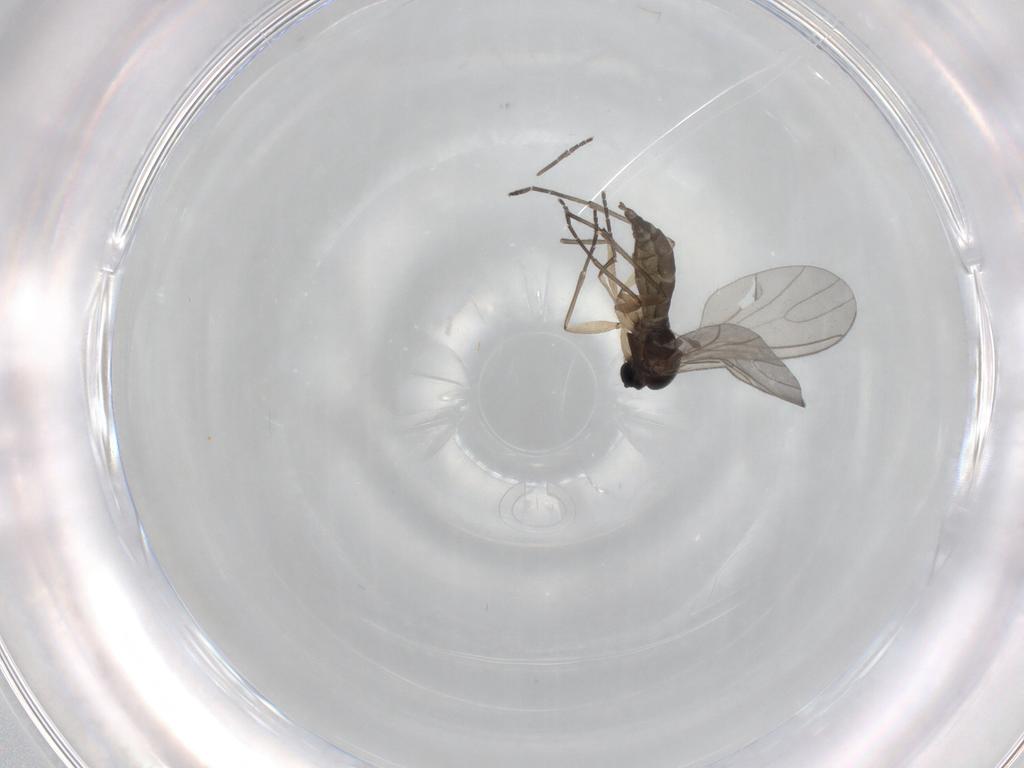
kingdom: Animalia
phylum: Arthropoda
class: Insecta
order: Diptera
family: Sciaridae
